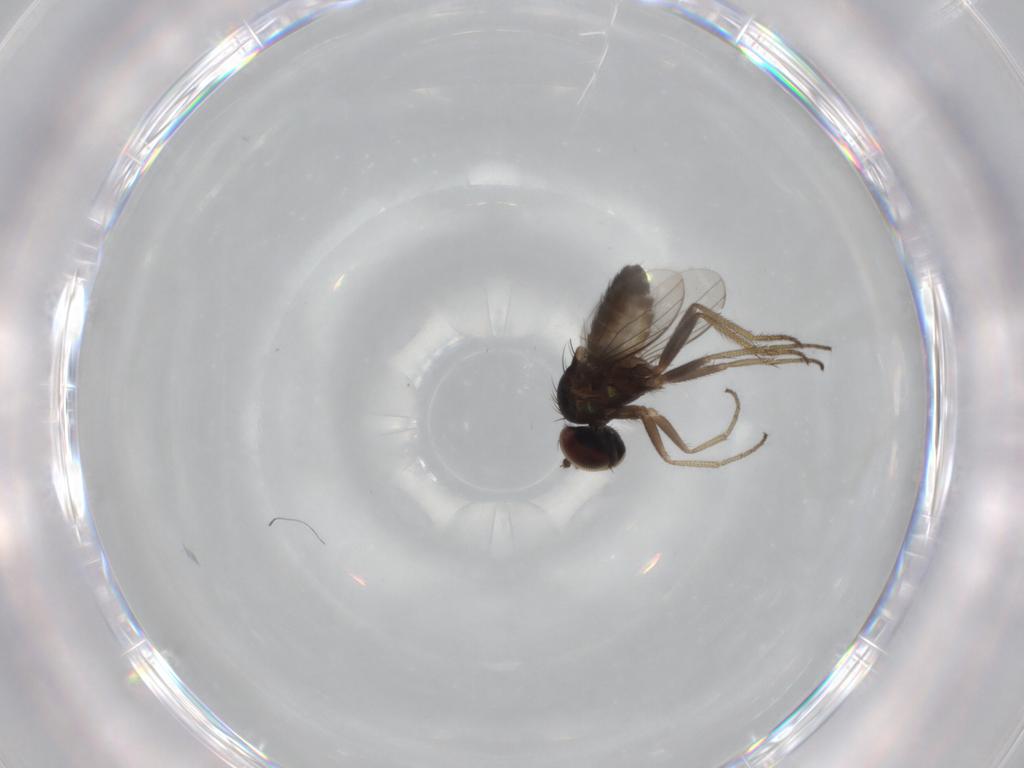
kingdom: Animalia
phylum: Arthropoda
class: Insecta
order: Diptera
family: Dolichopodidae
